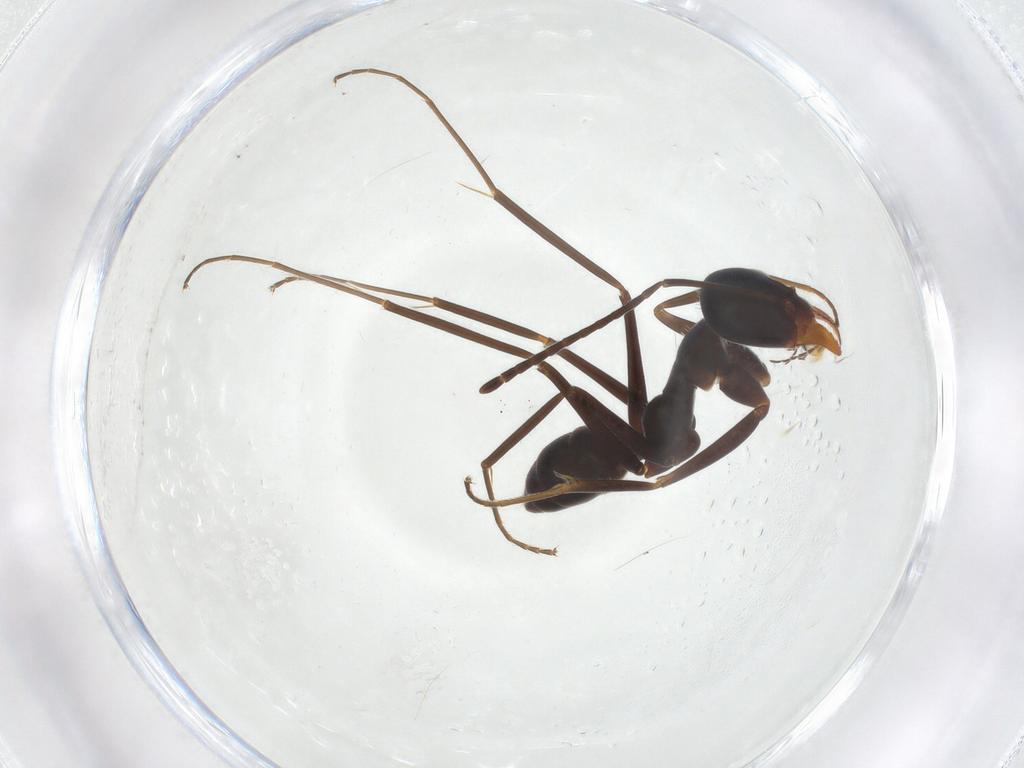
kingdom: Animalia
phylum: Arthropoda
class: Insecta
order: Hymenoptera
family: Formicidae
